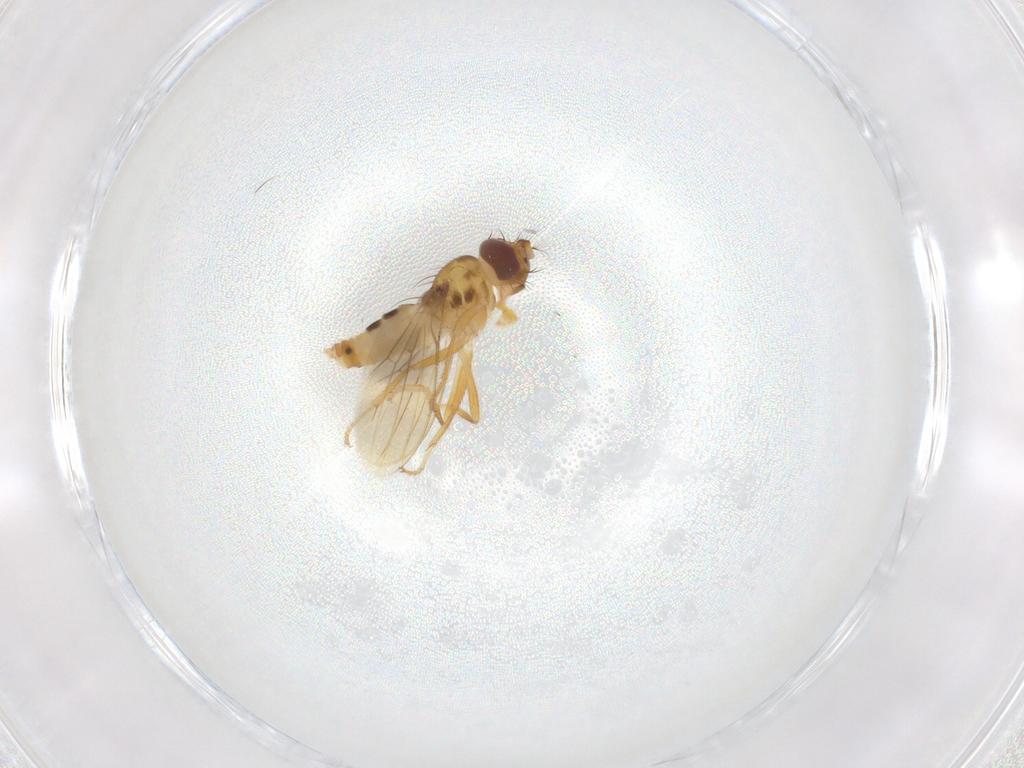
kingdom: Animalia
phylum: Arthropoda
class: Insecta
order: Diptera
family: Periscelididae
